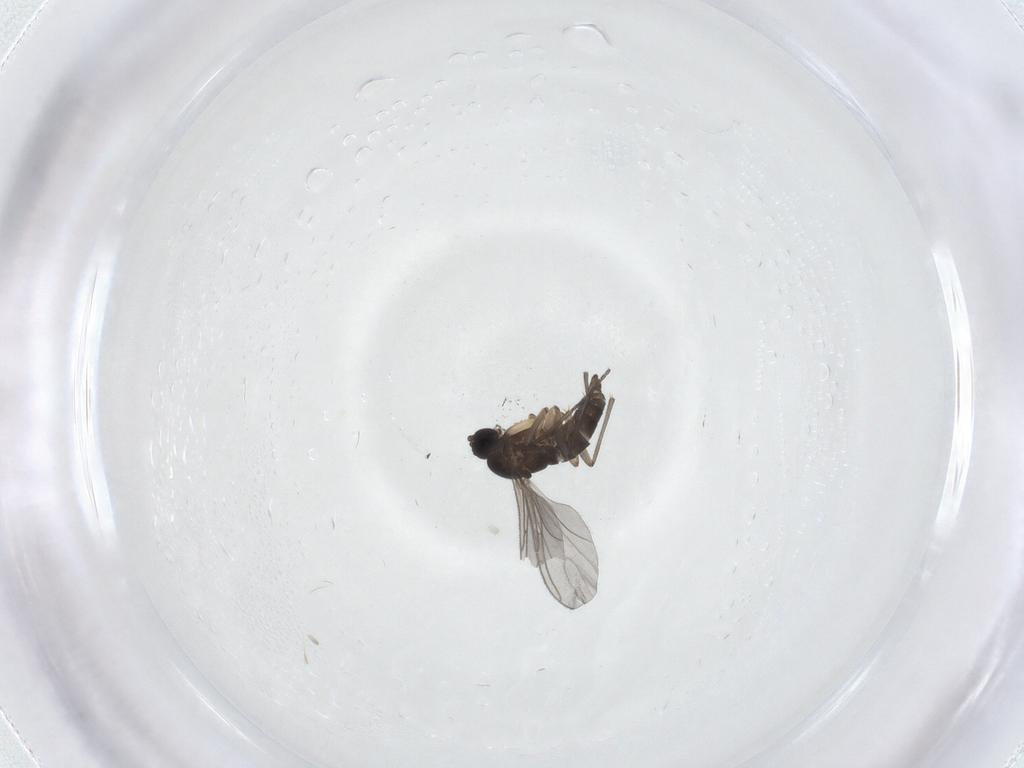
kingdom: Animalia
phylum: Arthropoda
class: Insecta
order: Diptera
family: Sciaridae
